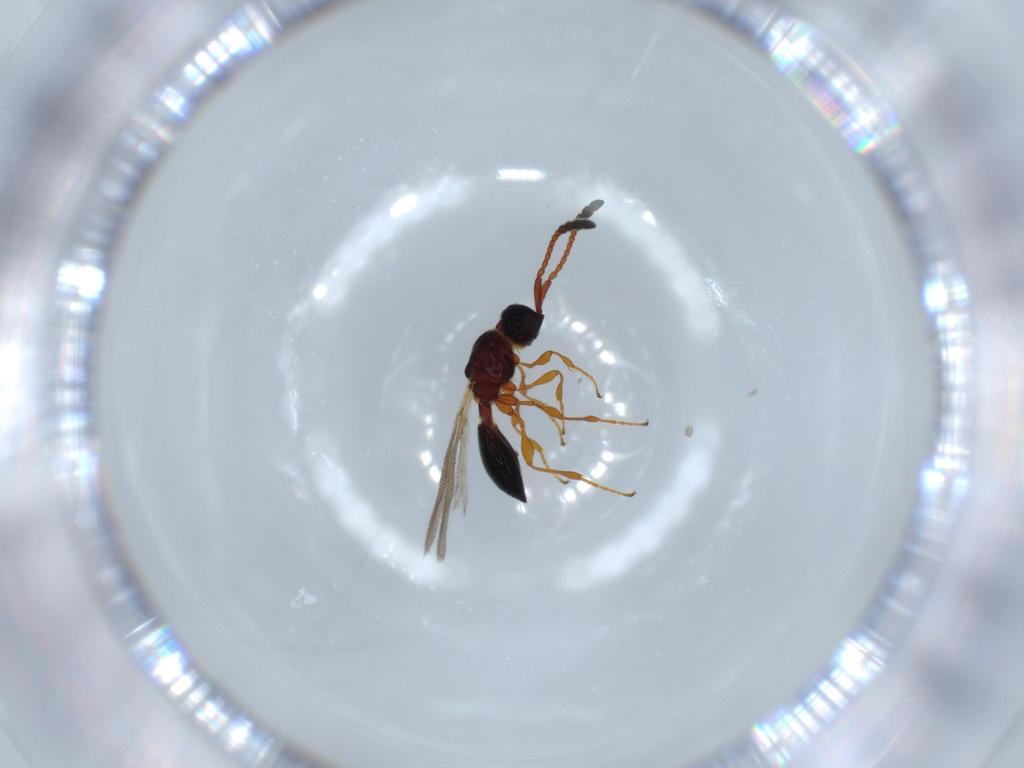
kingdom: Animalia
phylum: Arthropoda
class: Insecta
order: Hymenoptera
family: Diapriidae
